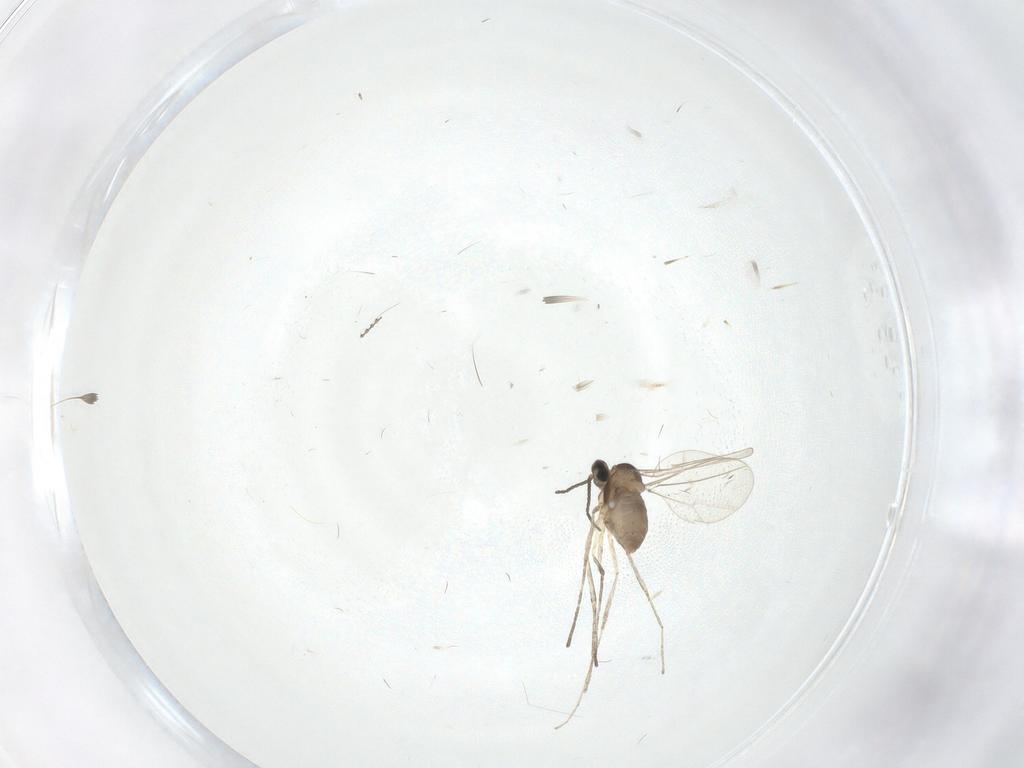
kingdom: Animalia
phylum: Arthropoda
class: Insecta
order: Diptera
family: Cecidomyiidae
